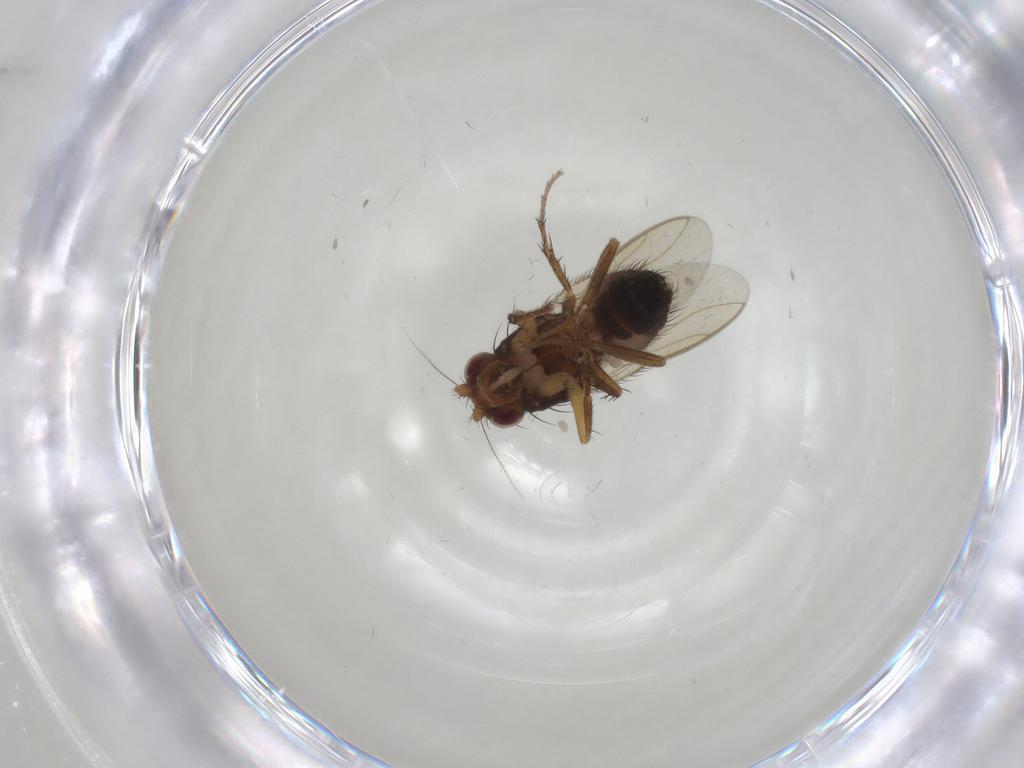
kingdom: Animalia
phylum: Arthropoda
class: Insecta
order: Diptera
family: Sphaeroceridae
